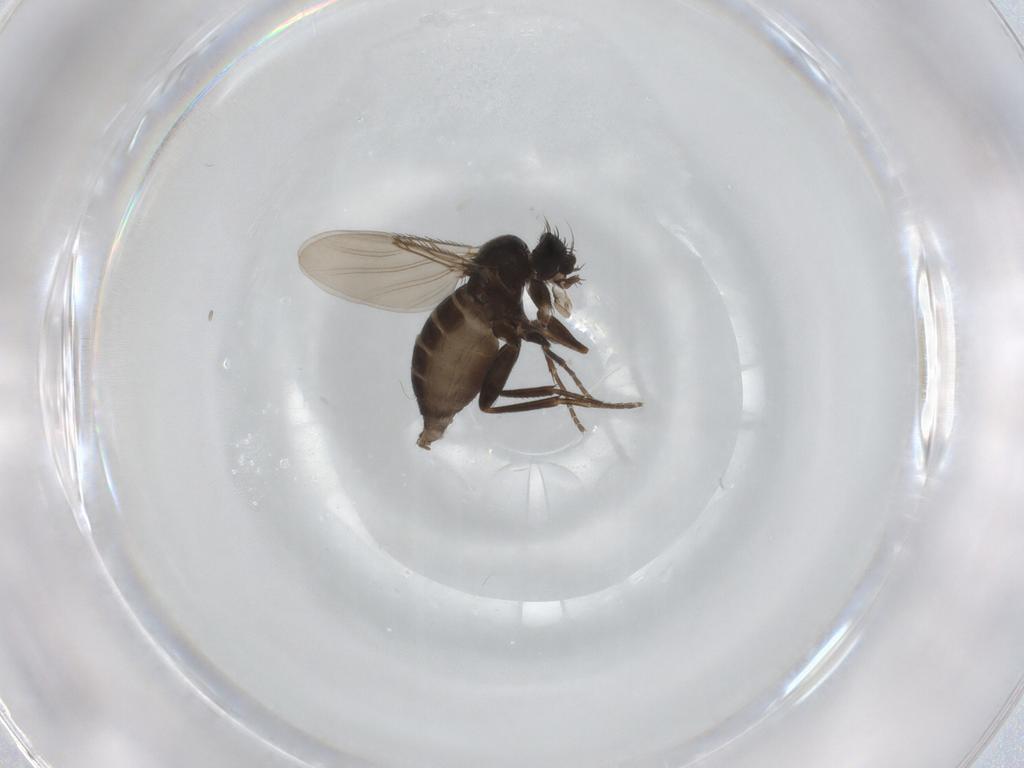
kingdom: Animalia
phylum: Arthropoda
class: Insecta
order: Diptera
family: Phoridae
